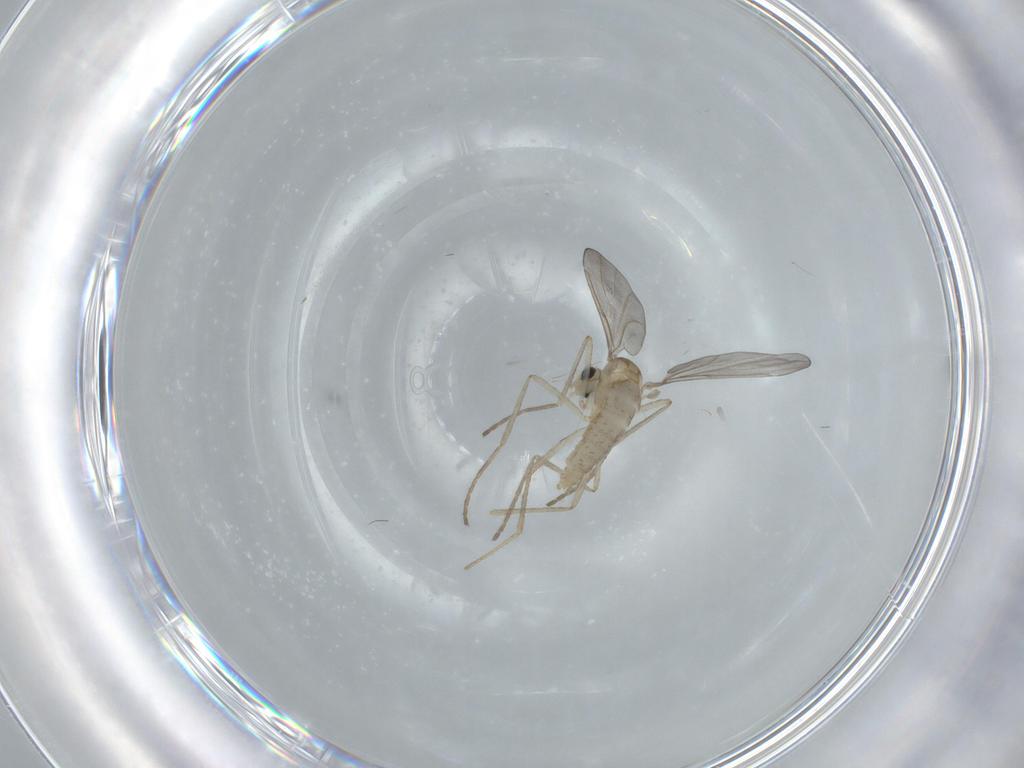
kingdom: Animalia
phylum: Arthropoda
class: Insecta
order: Diptera
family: Cecidomyiidae
